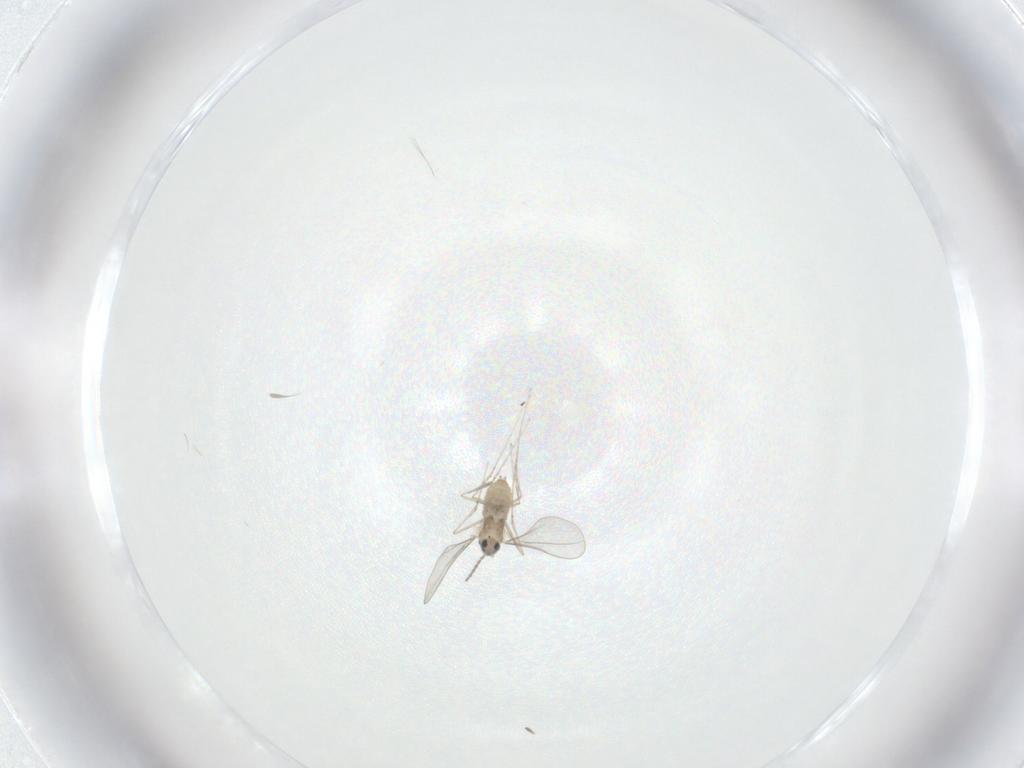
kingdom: Animalia
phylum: Arthropoda
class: Insecta
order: Diptera
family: Cecidomyiidae
